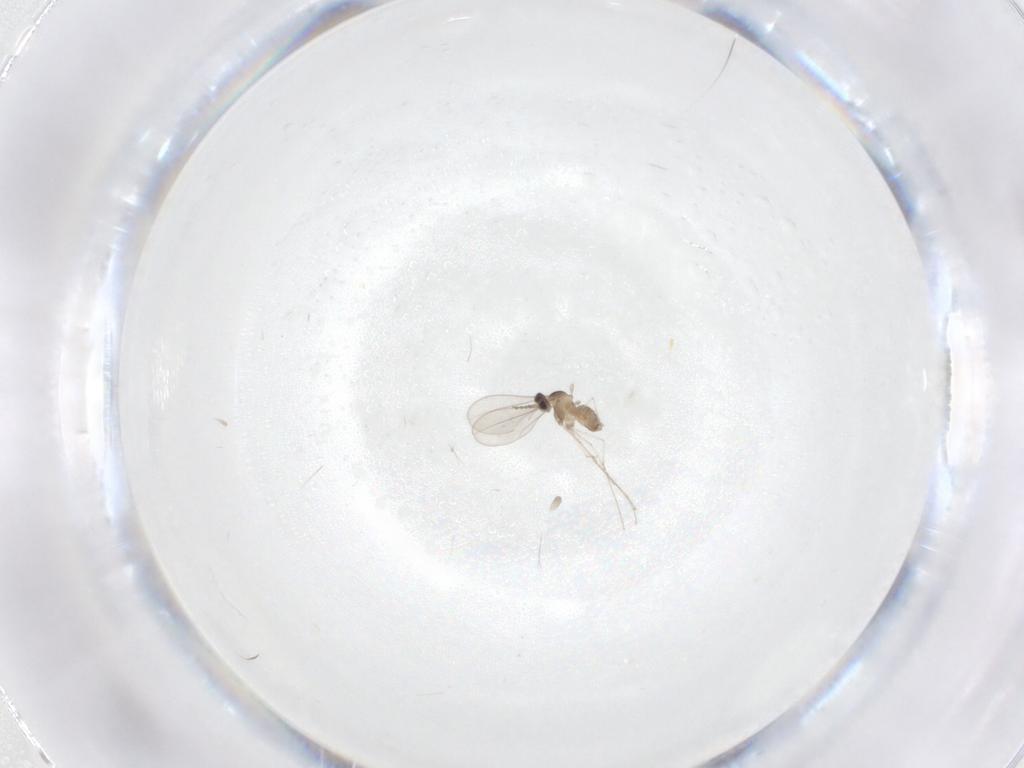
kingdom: Animalia
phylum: Arthropoda
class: Insecta
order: Diptera
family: Cecidomyiidae
